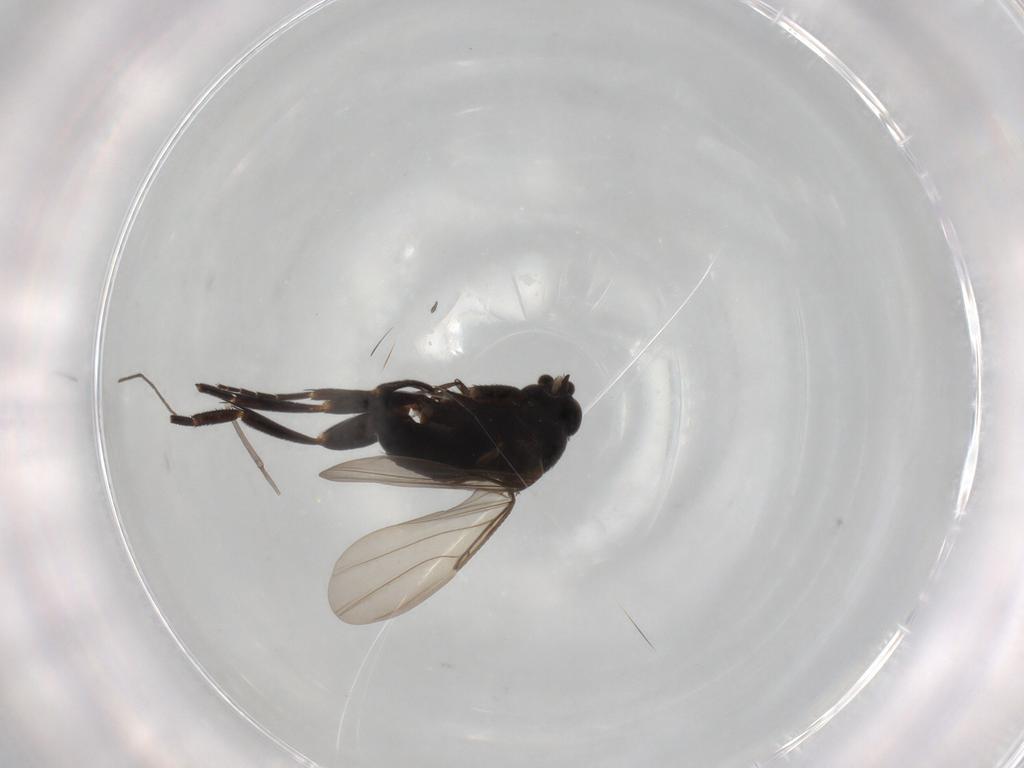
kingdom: Animalia
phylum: Arthropoda
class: Insecta
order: Diptera
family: Phoridae
